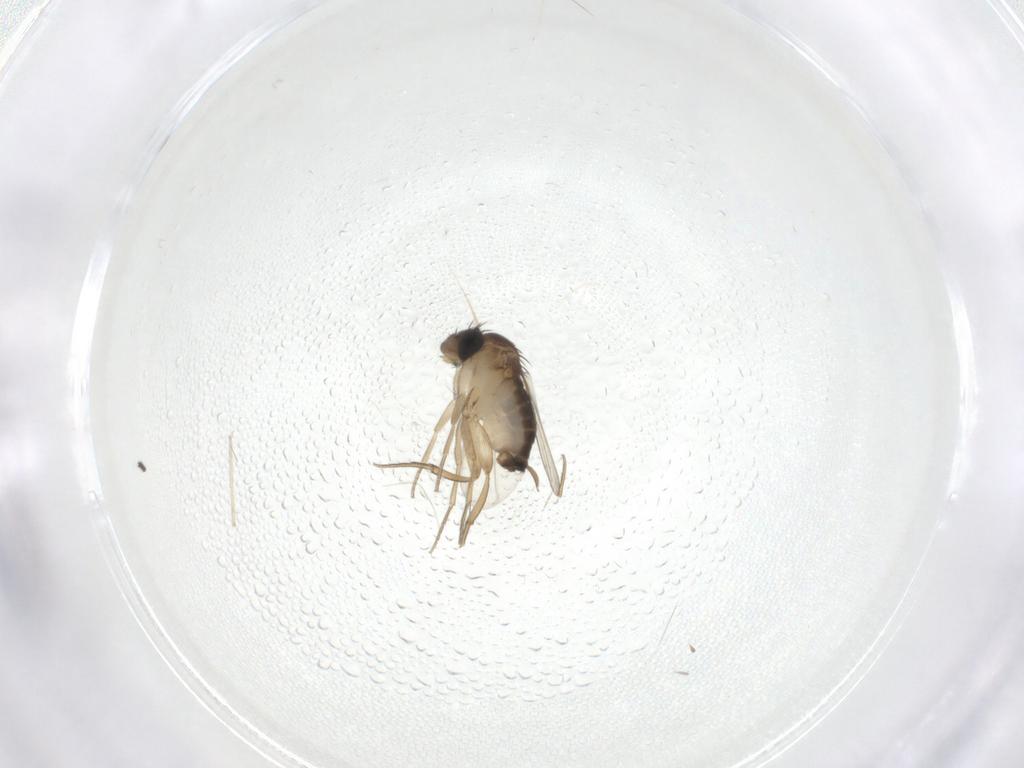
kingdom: Animalia
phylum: Arthropoda
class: Insecta
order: Diptera
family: Cecidomyiidae
